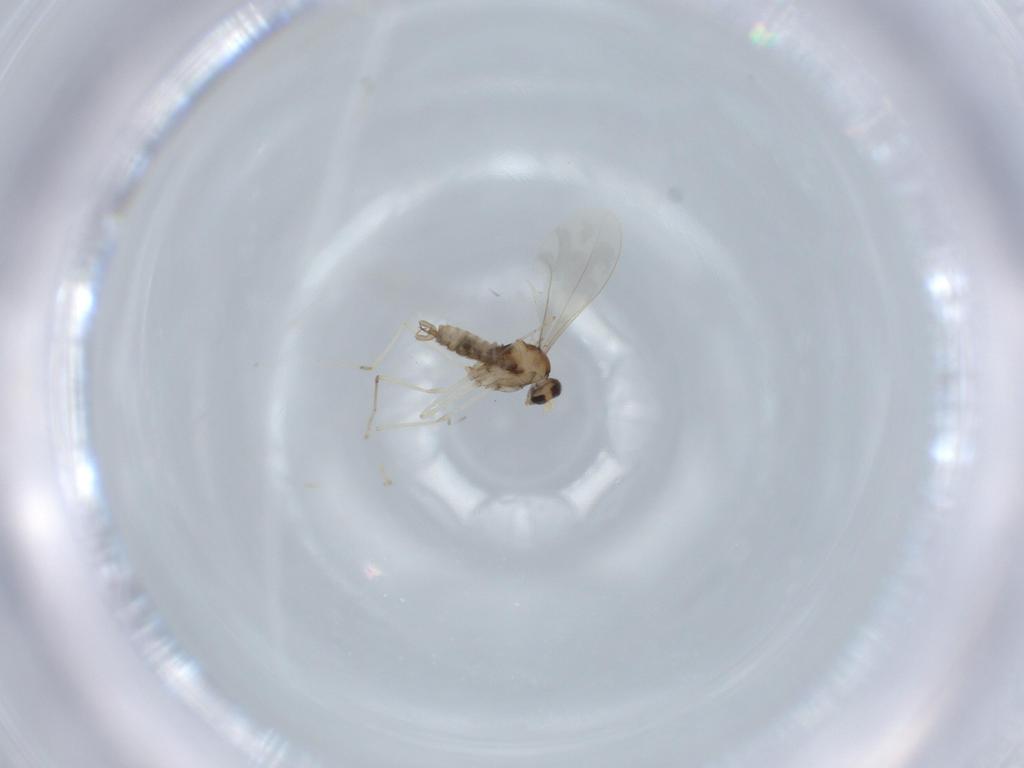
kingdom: Animalia
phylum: Arthropoda
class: Insecta
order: Diptera
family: Cecidomyiidae
